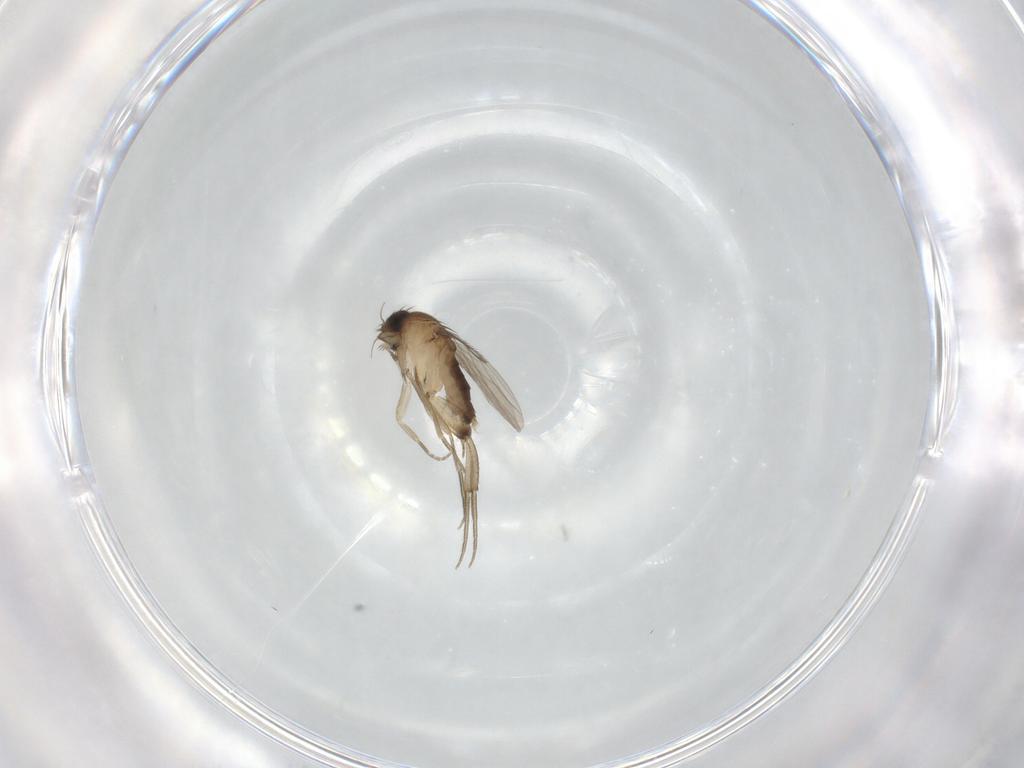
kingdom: Animalia
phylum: Arthropoda
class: Insecta
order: Diptera
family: Phoridae
